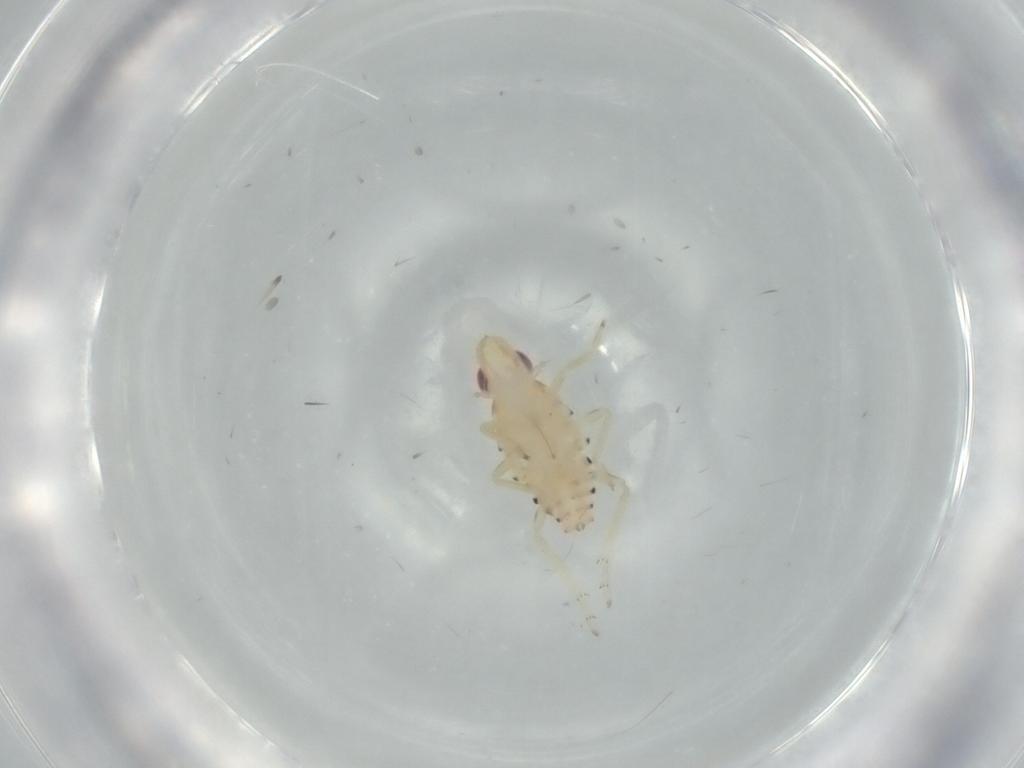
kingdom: Animalia
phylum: Arthropoda
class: Insecta
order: Hemiptera
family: Tropiduchidae
